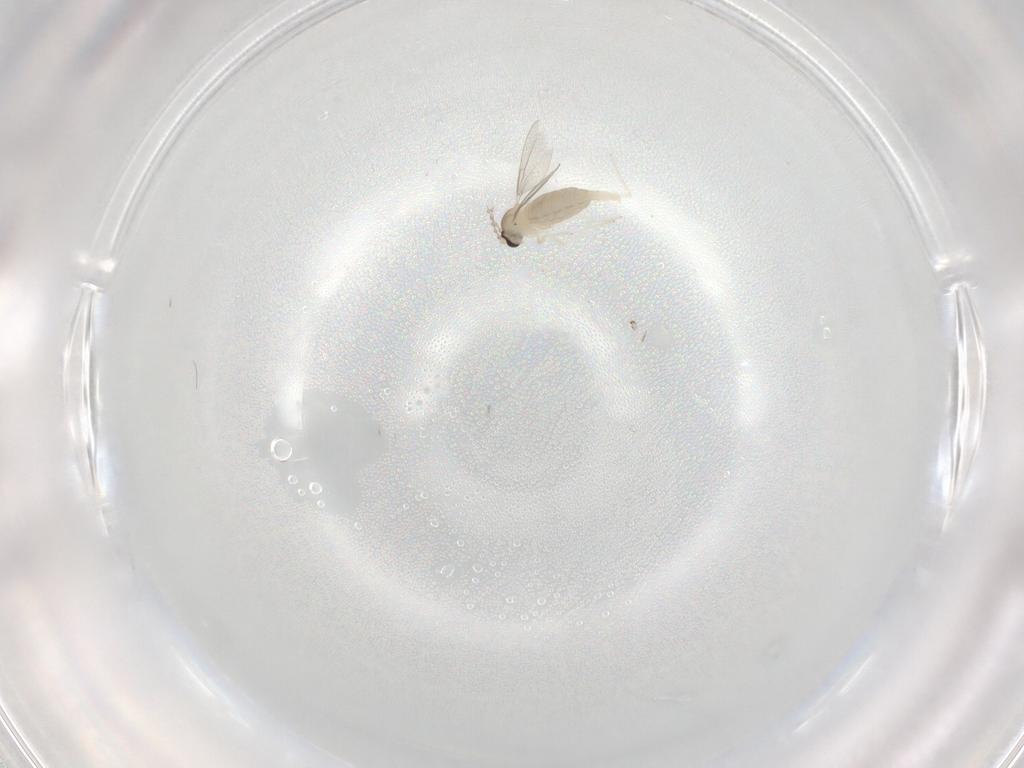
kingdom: Animalia
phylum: Arthropoda
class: Insecta
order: Diptera
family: Cecidomyiidae
